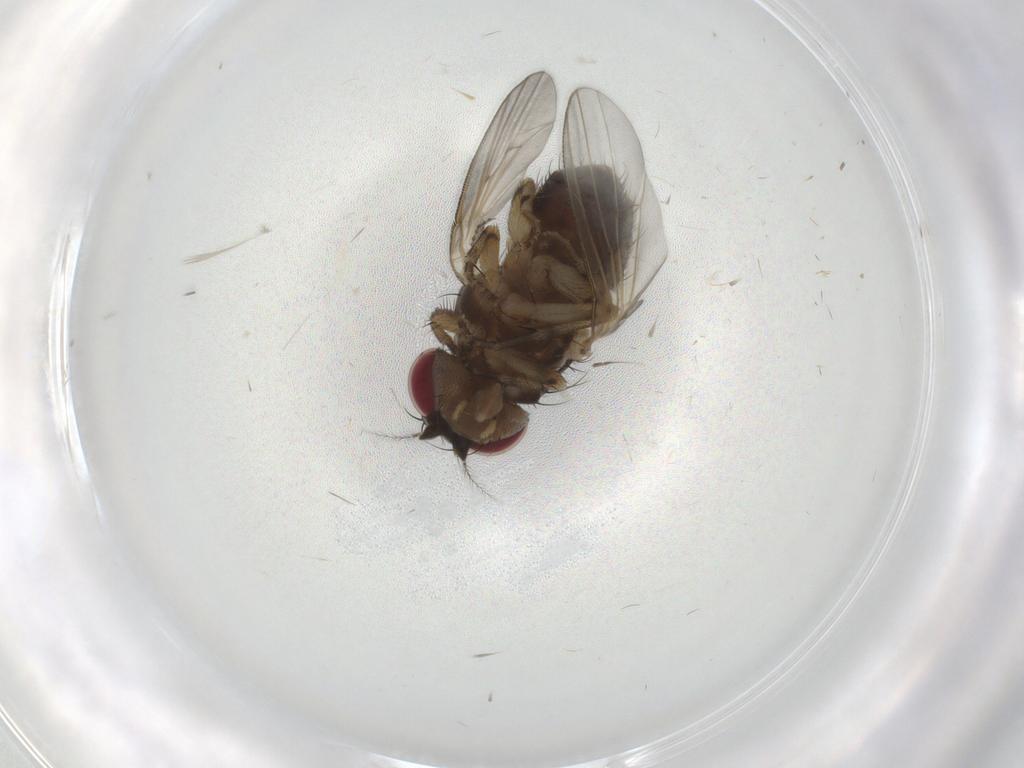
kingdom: Animalia
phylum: Arthropoda
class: Insecta
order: Diptera
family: Odiniidae
